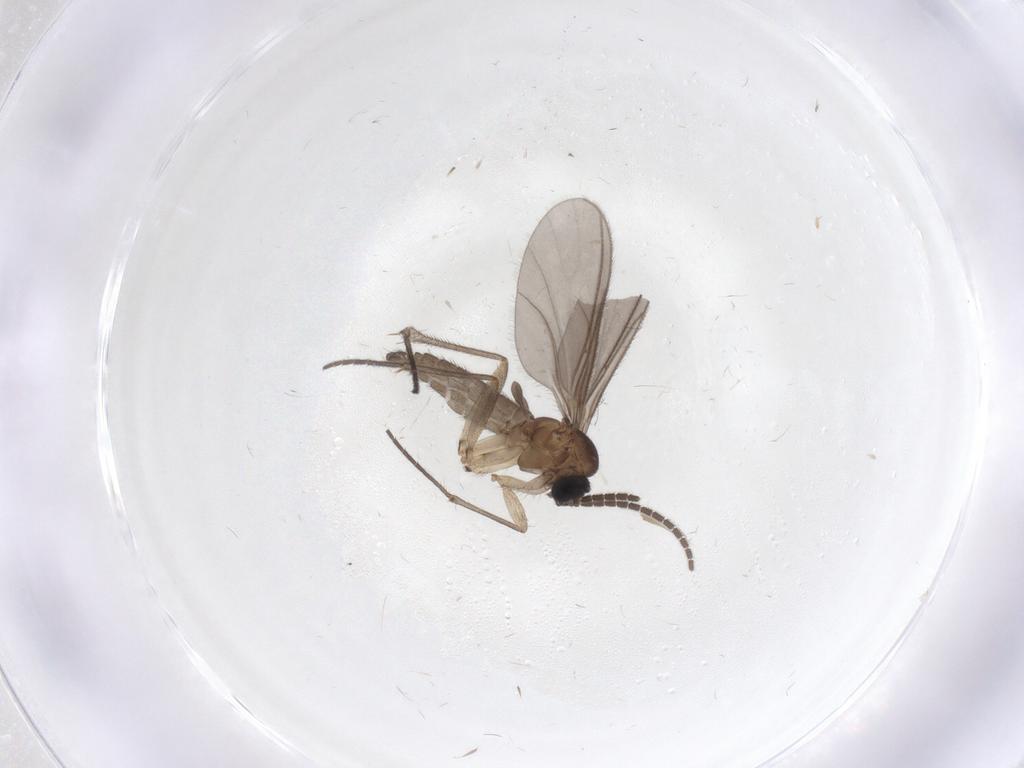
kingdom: Animalia
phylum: Arthropoda
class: Insecta
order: Diptera
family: Sciaridae
